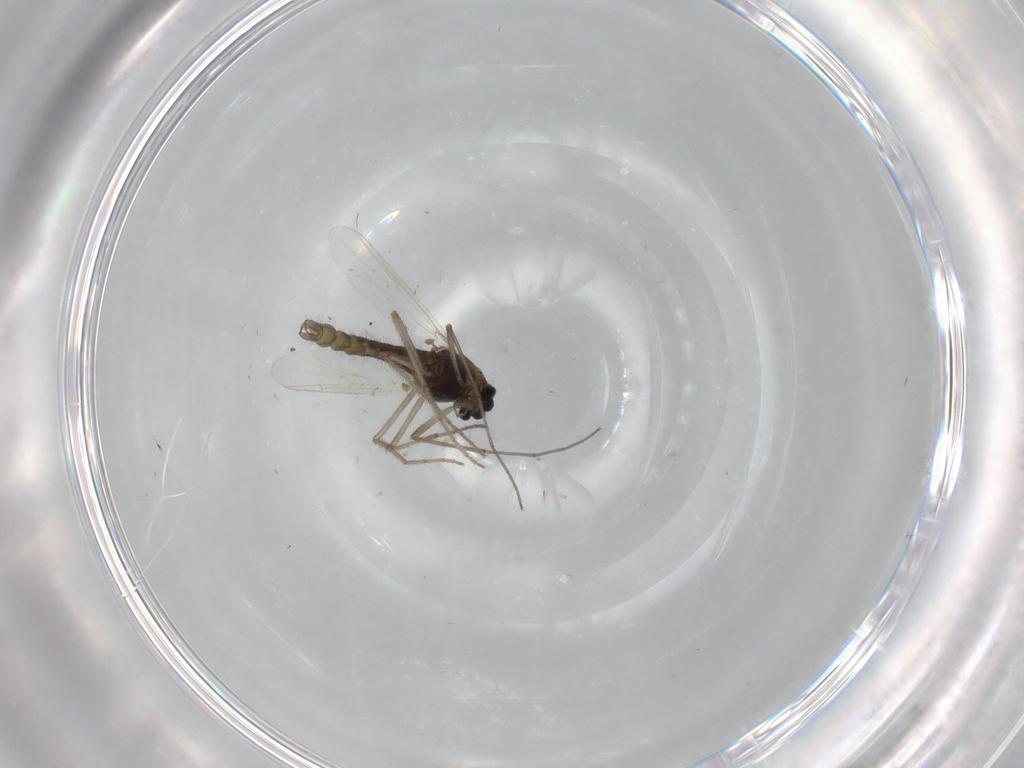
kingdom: Animalia
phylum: Arthropoda
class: Insecta
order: Diptera
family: Chironomidae
